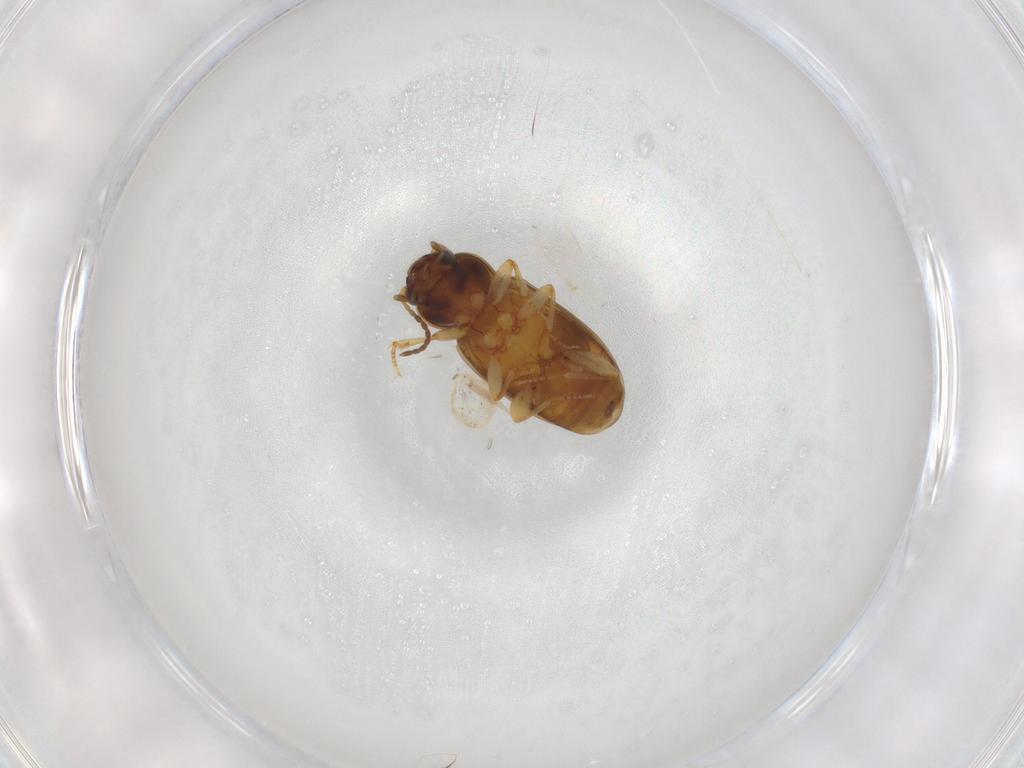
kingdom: Animalia
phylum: Arthropoda
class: Insecta
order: Coleoptera
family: Carabidae
